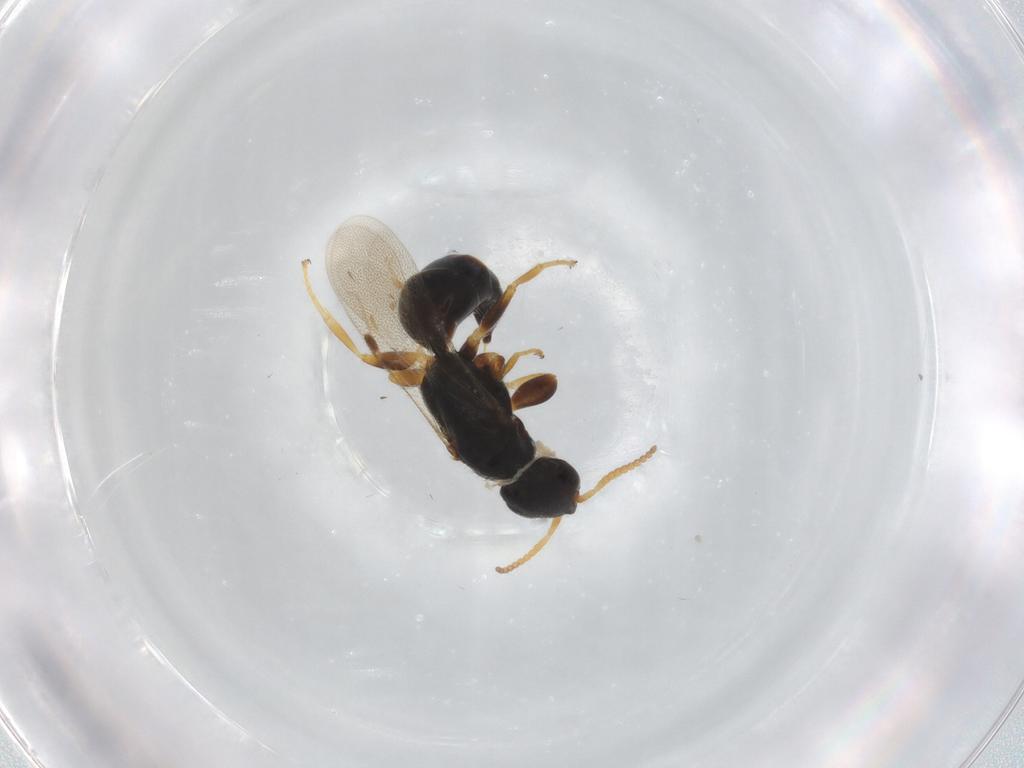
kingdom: Animalia
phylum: Arthropoda
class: Insecta
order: Hymenoptera
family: Bethylidae
